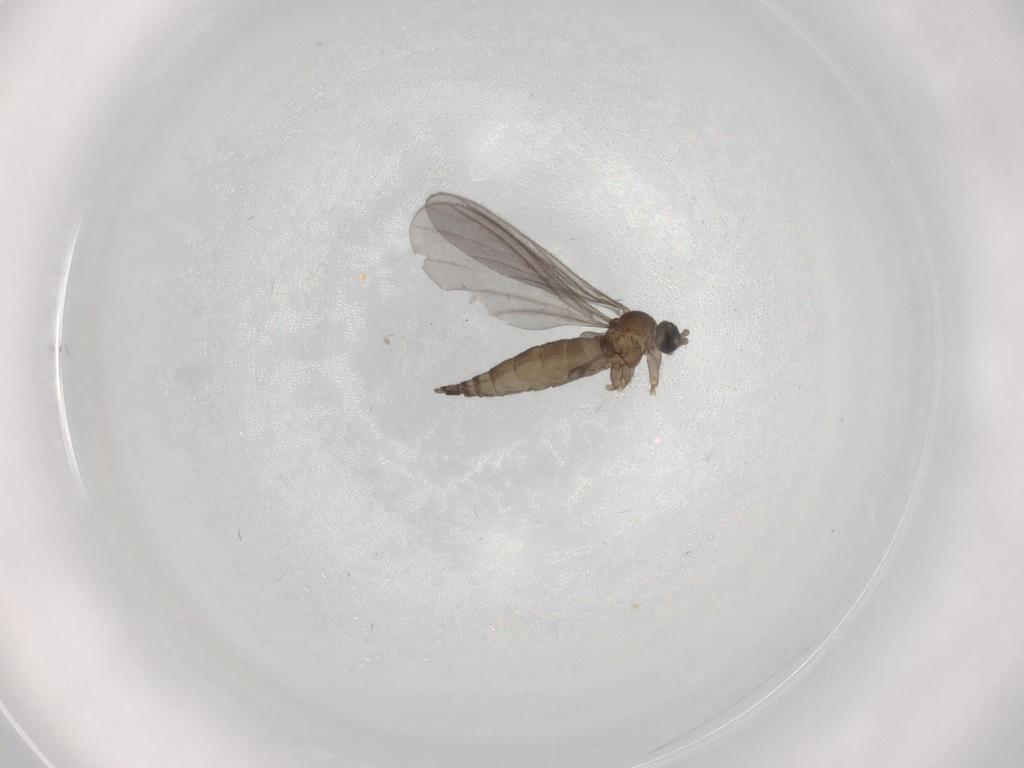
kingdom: Animalia
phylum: Arthropoda
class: Insecta
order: Diptera
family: Sciaridae
